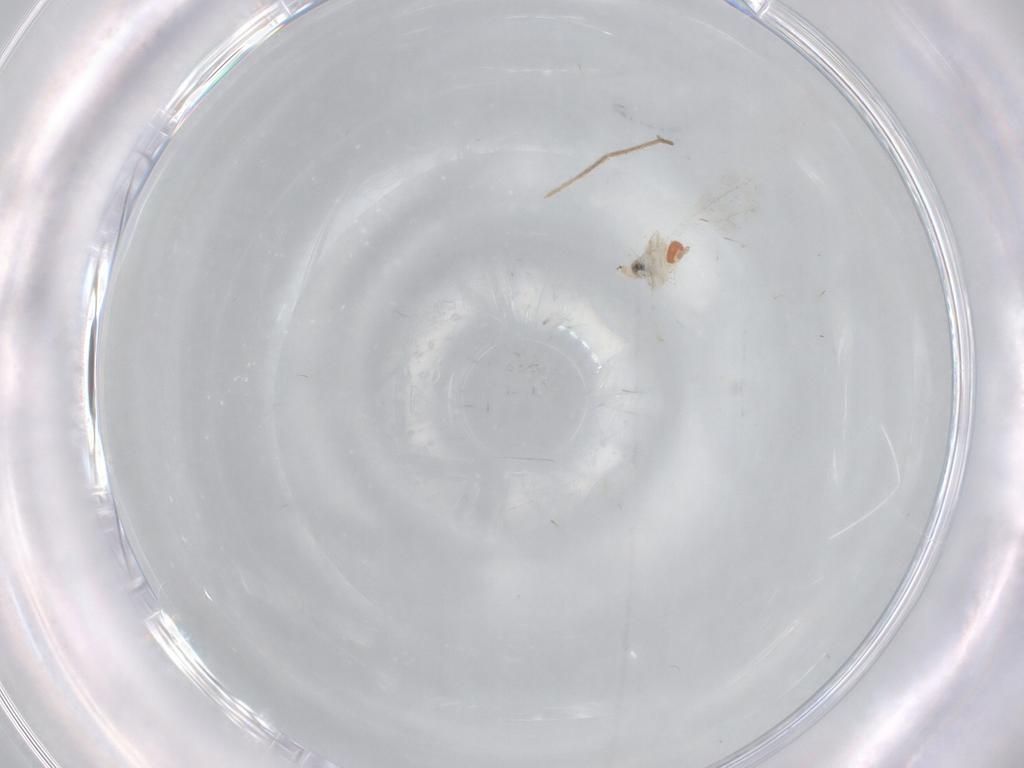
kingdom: Animalia
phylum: Arthropoda
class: Insecta
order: Diptera
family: Chironomidae
